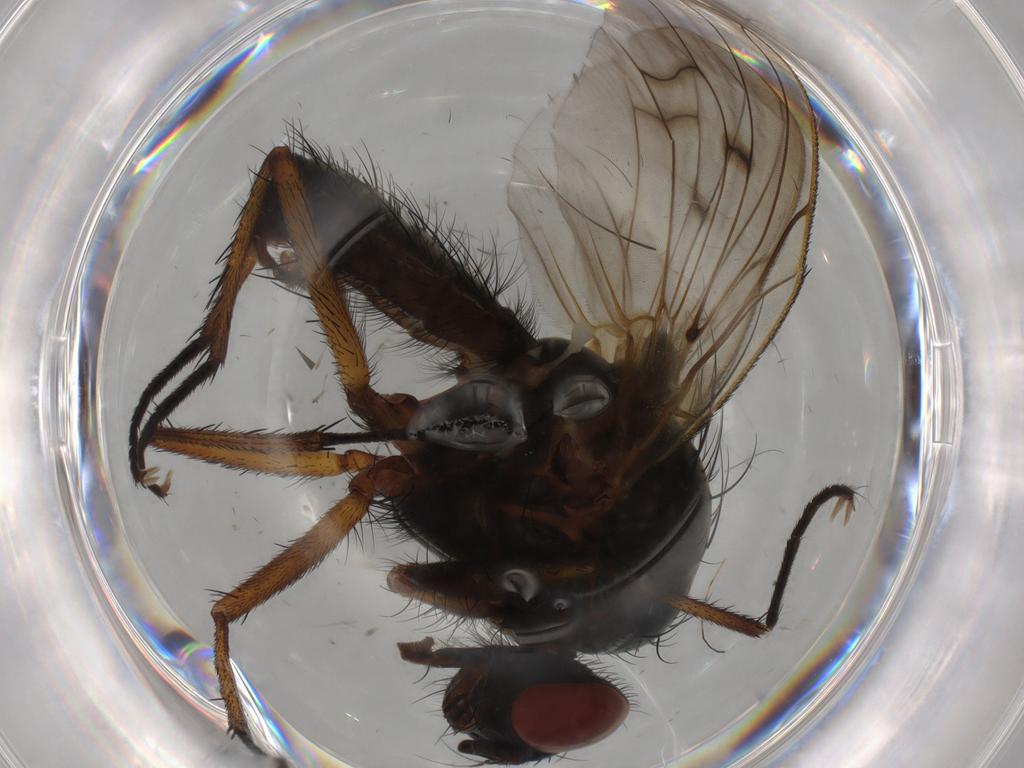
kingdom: Animalia
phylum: Arthropoda
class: Insecta
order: Diptera
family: Anthomyiidae
